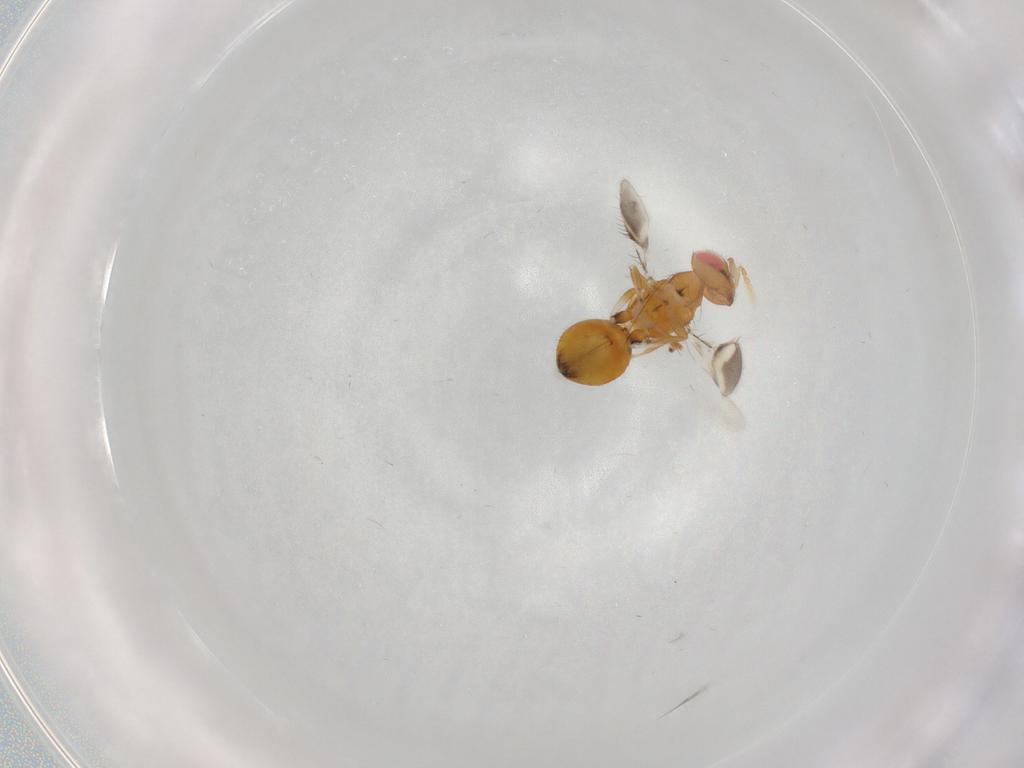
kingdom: Animalia
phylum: Arthropoda
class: Insecta
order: Hymenoptera
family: Eulophidae
